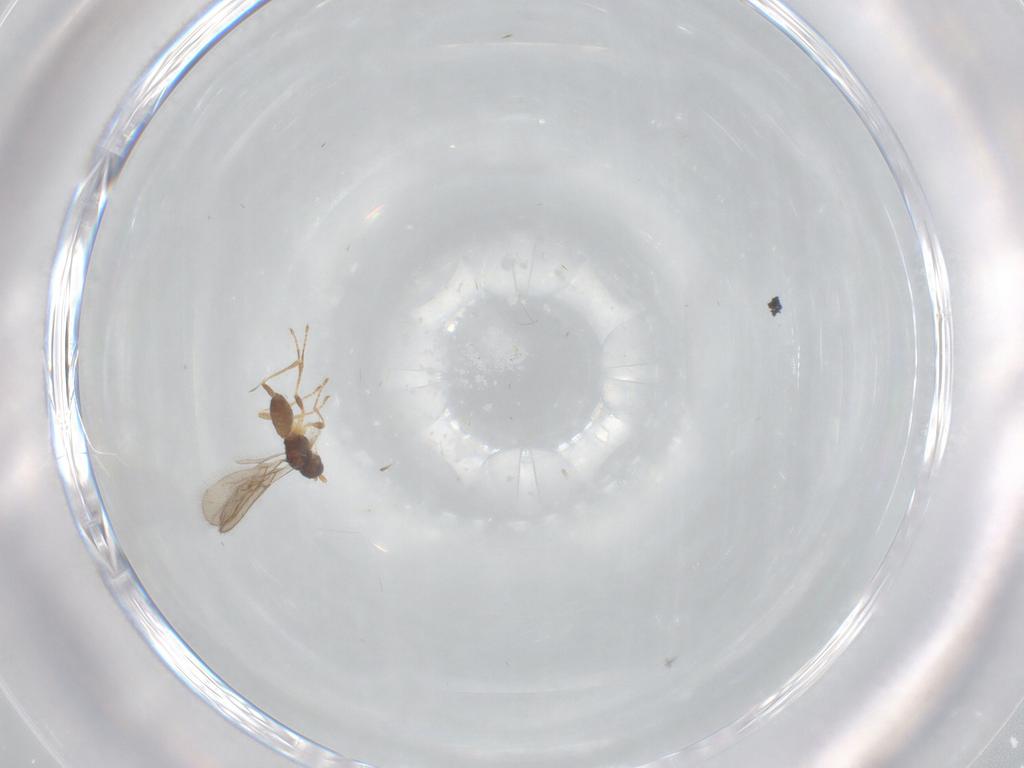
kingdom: Animalia
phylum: Arthropoda
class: Insecta
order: Hymenoptera
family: Braconidae
